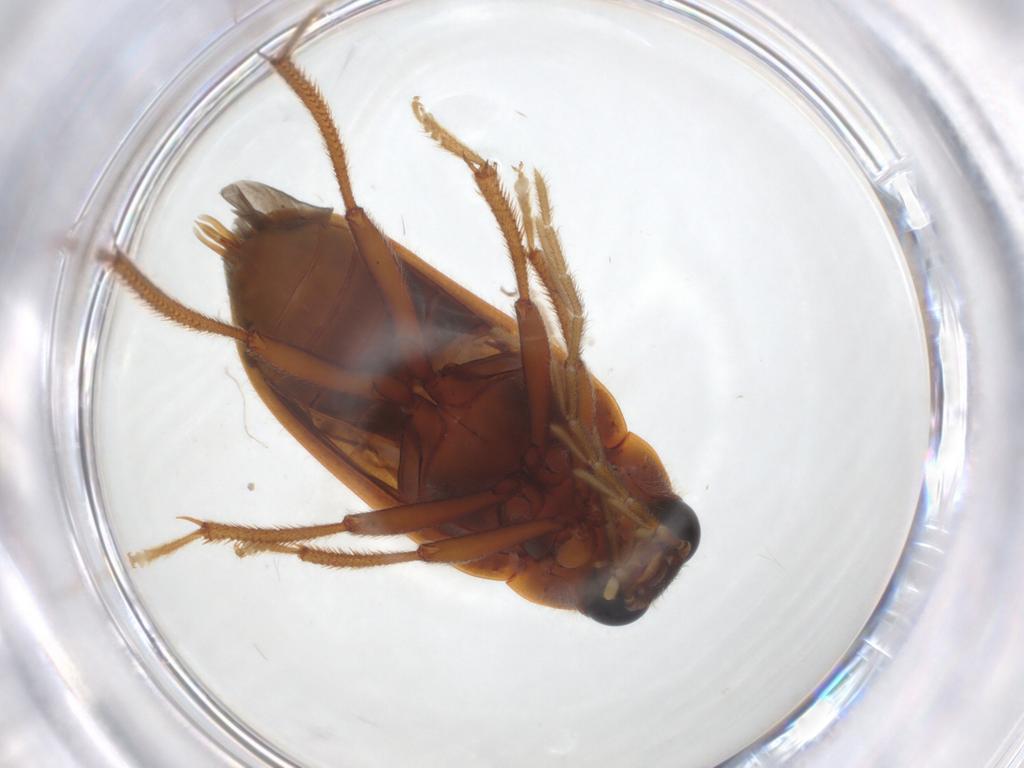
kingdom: Animalia
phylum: Arthropoda
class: Insecta
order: Coleoptera
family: Ptilodactylidae
